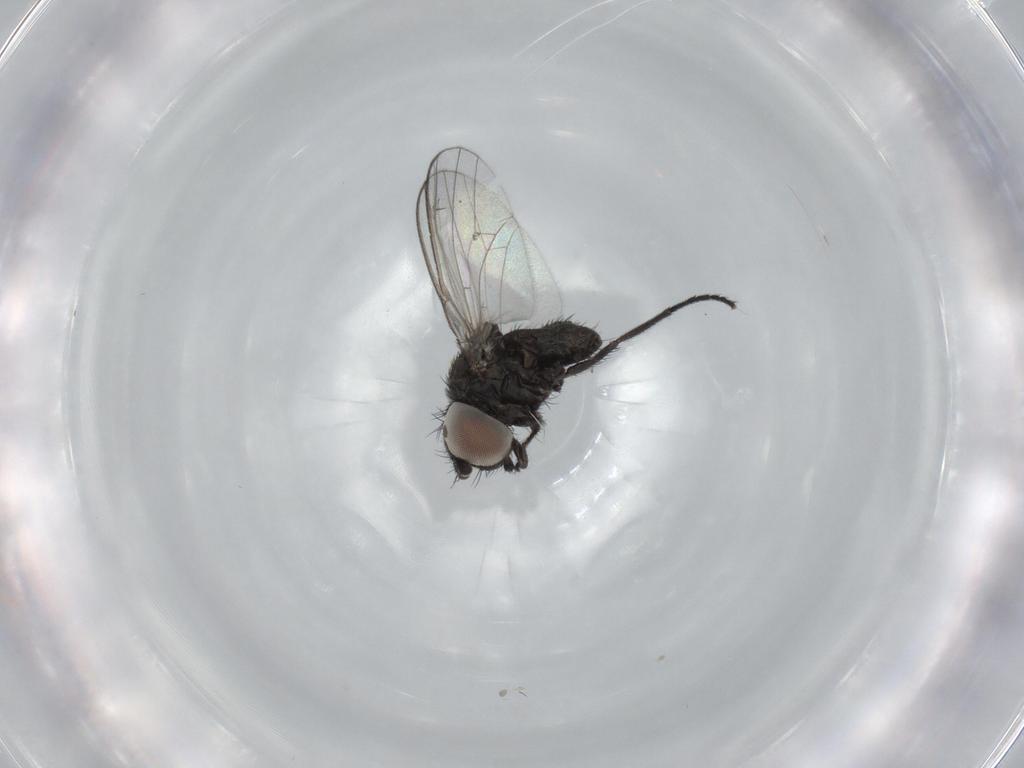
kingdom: Animalia
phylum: Arthropoda
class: Insecta
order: Diptera
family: Milichiidae
